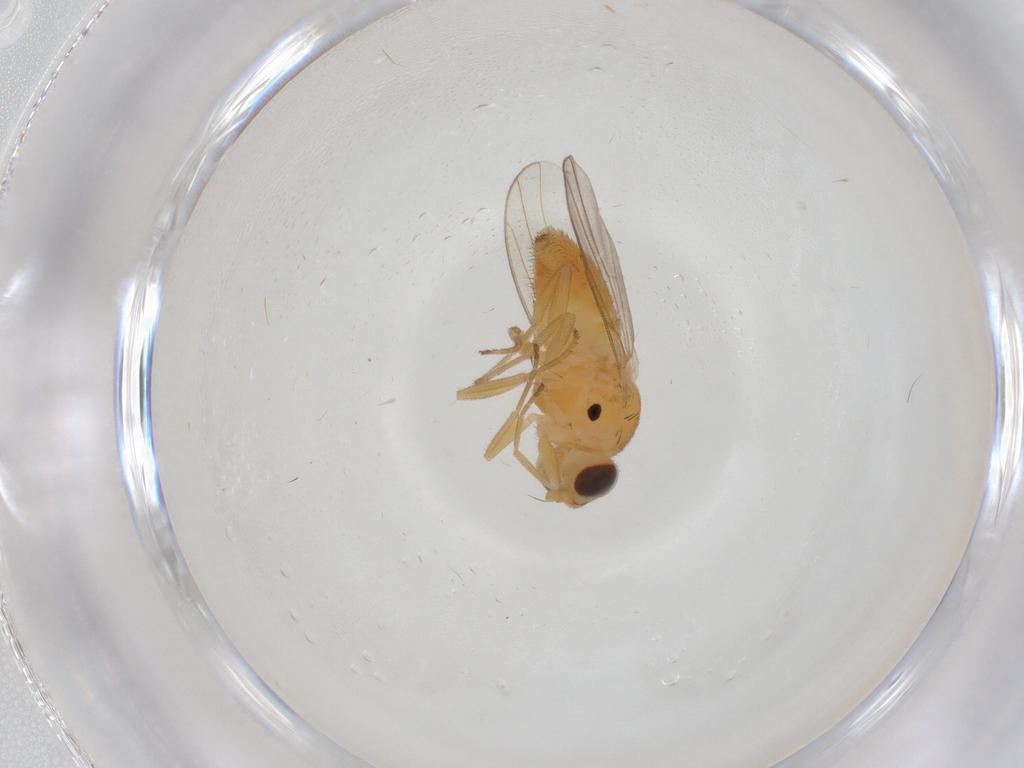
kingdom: Animalia
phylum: Arthropoda
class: Insecta
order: Diptera
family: Chloropidae
